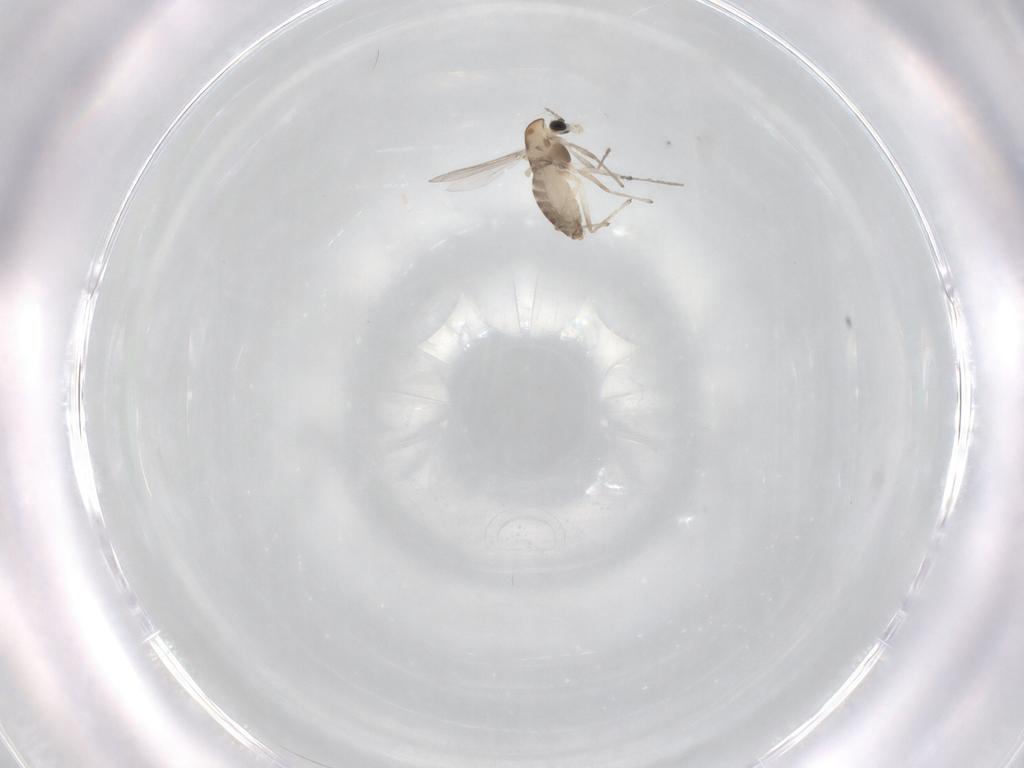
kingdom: Animalia
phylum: Arthropoda
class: Insecta
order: Diptera
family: Chironomidae
